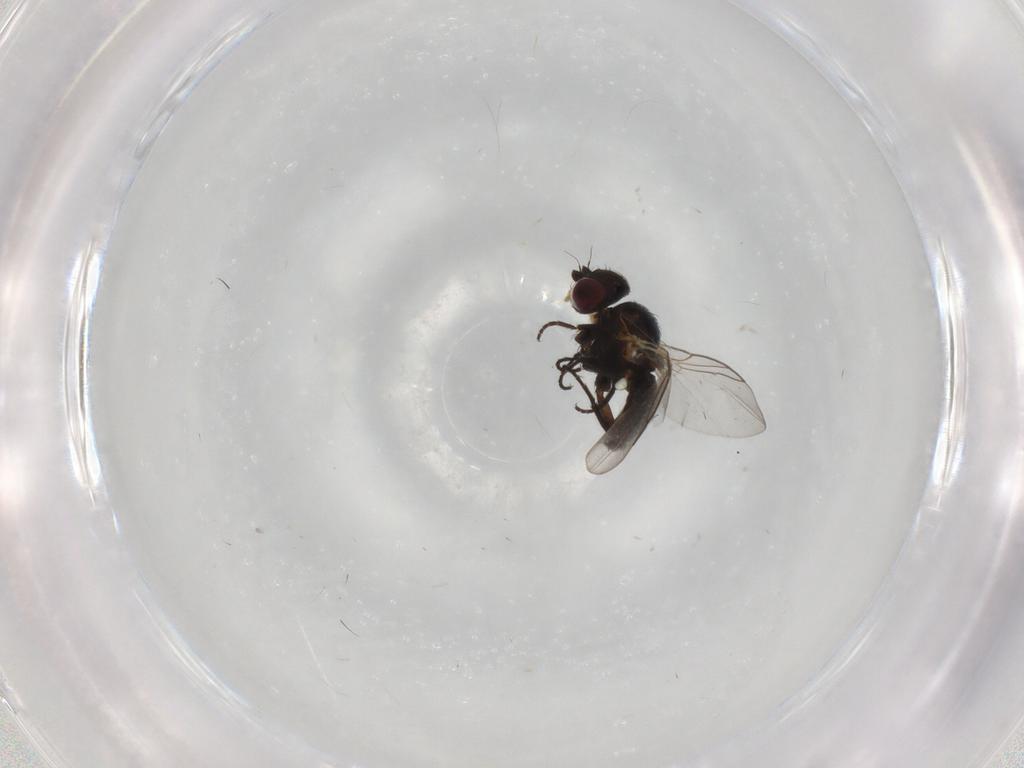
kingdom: Animalia
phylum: Arthropoda
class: Insecta
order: Diptera
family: Agromyzidae
